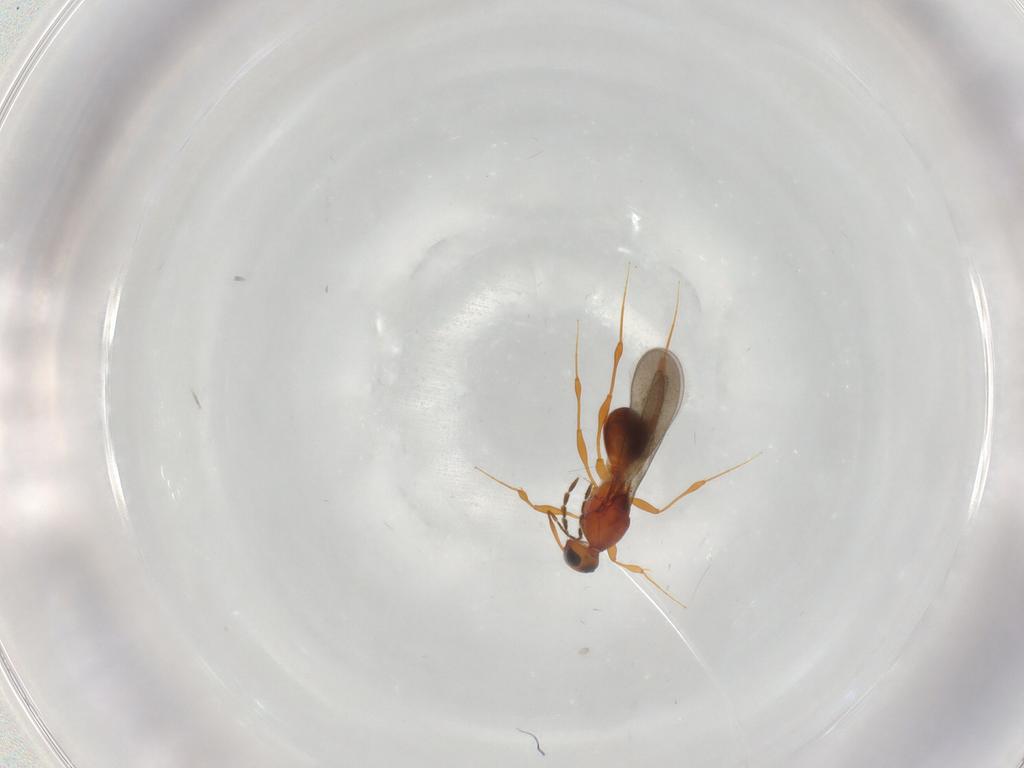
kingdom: Animalia
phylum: Arthropoda
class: Insecta
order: Hymenoptera
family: Platygastridae
